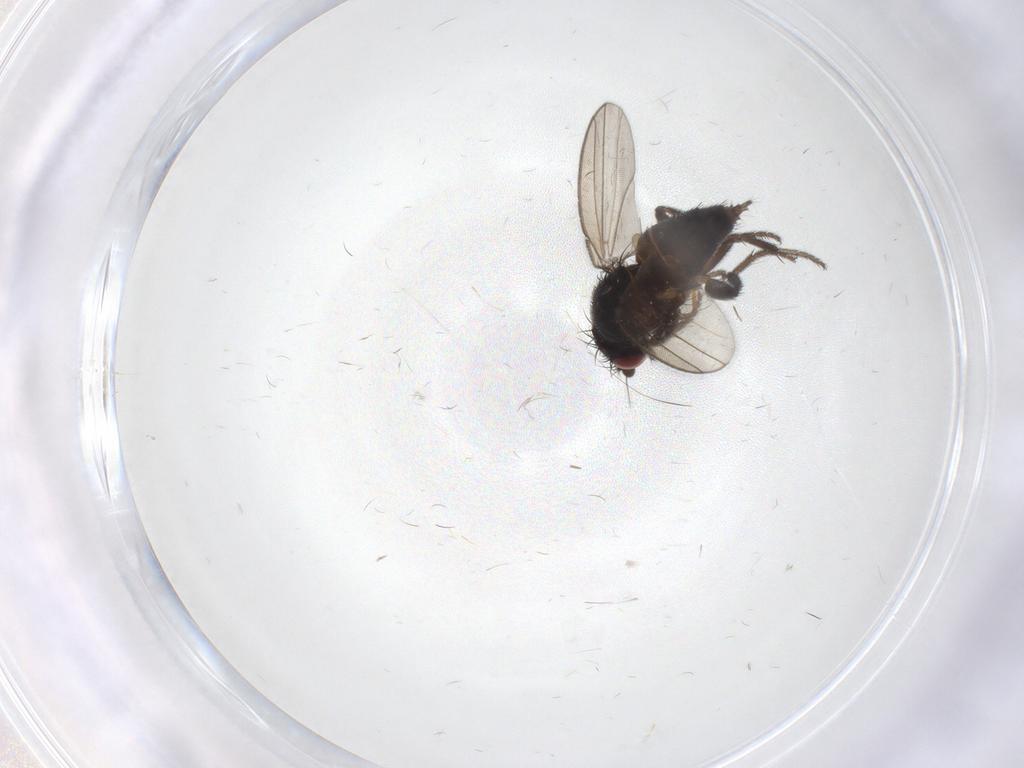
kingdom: Animalia
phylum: Arthropoda
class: Insecta
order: Diptera
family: Milichiidae
